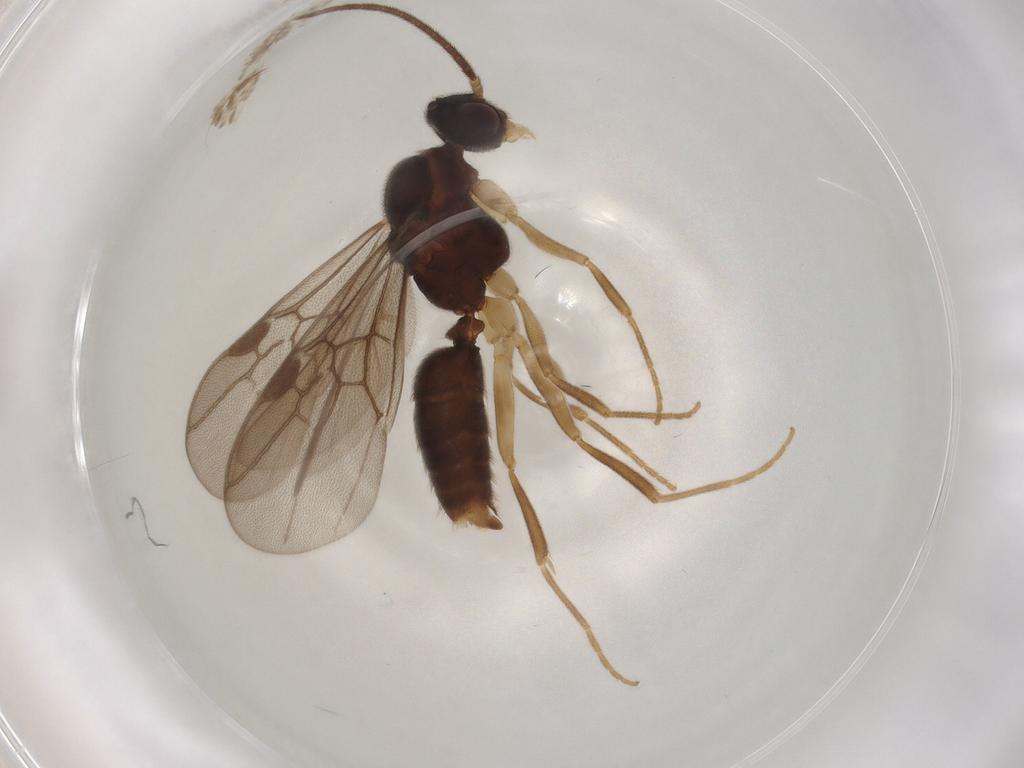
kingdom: Animalia
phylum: Arthropoda
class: Insecta
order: Hymenoptera
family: Formicidae
